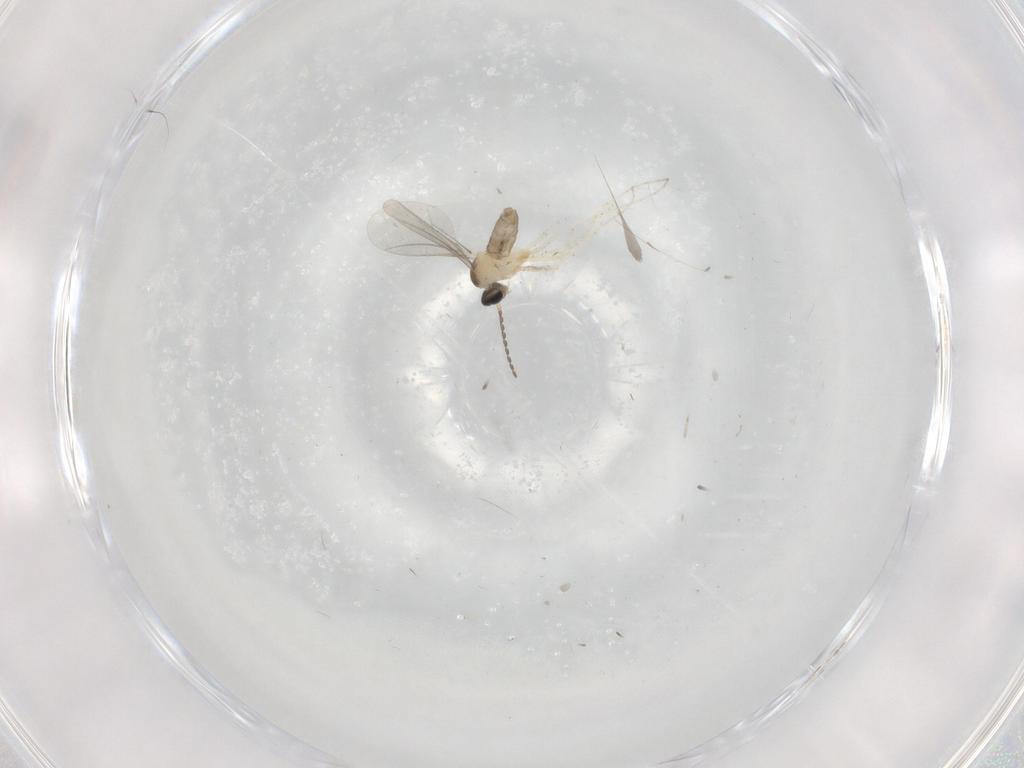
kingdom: Animalia
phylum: Arthropoda
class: Insecta
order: Diptera
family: Cecidomyiidae
